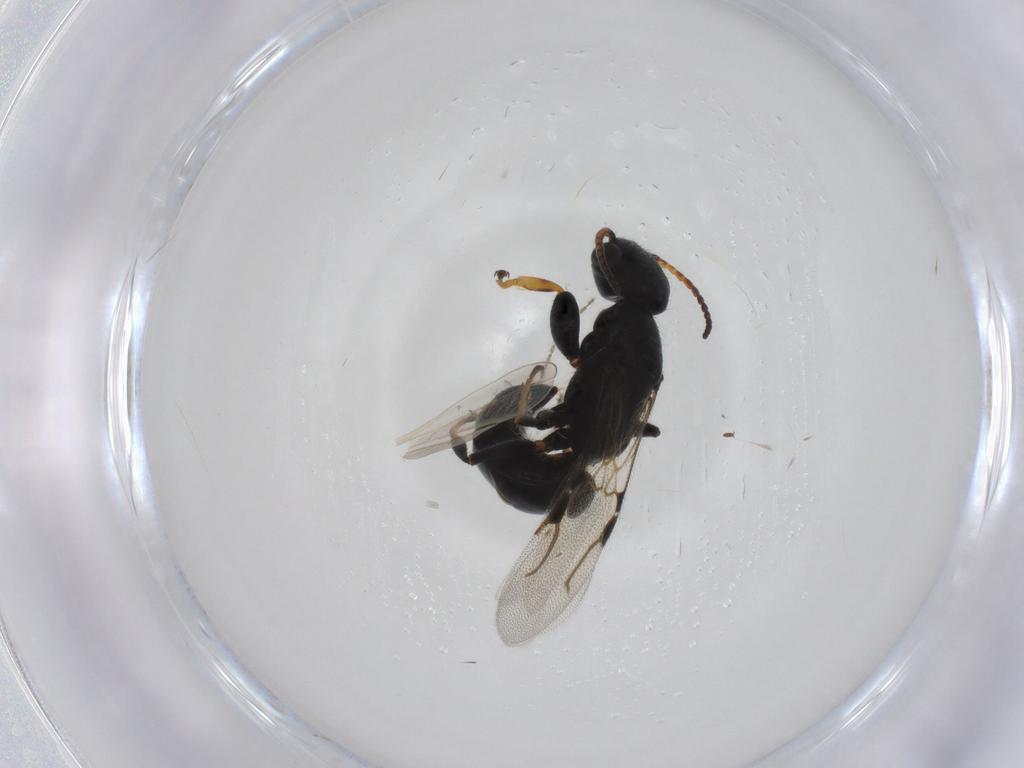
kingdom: Animalia
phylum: Arthropoda
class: Insecta
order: Hymenoptera
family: Bethylidae
